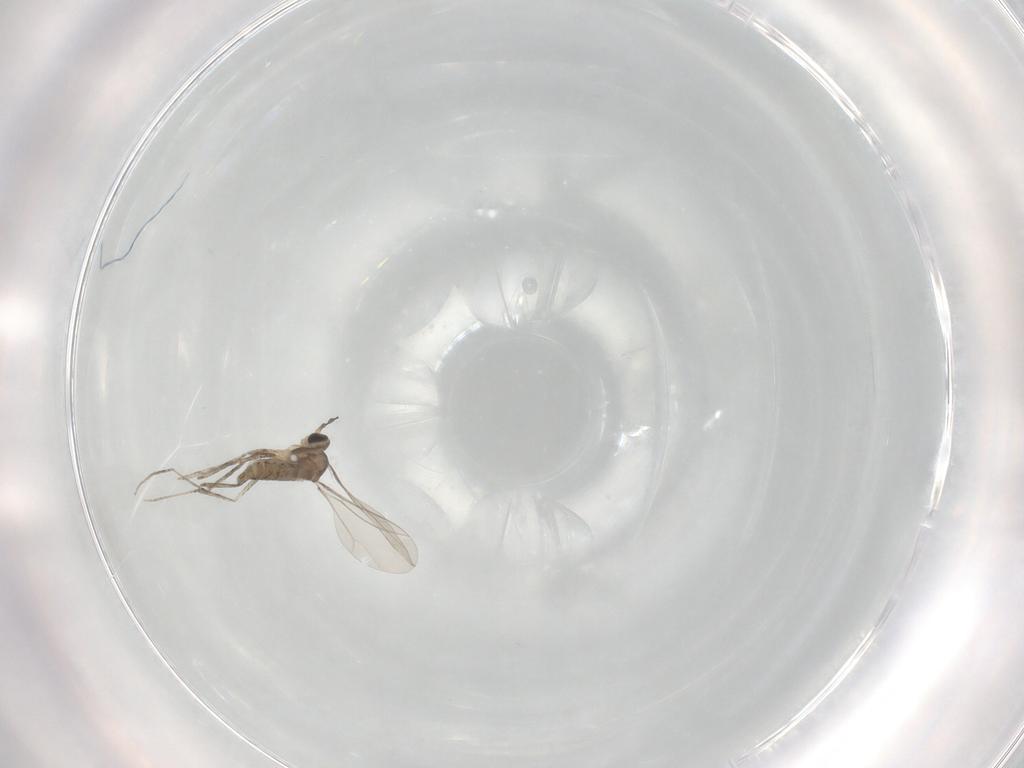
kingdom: Animalia
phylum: Arthropoda
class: Insecta
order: Diptera
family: Cecidomyiidae
